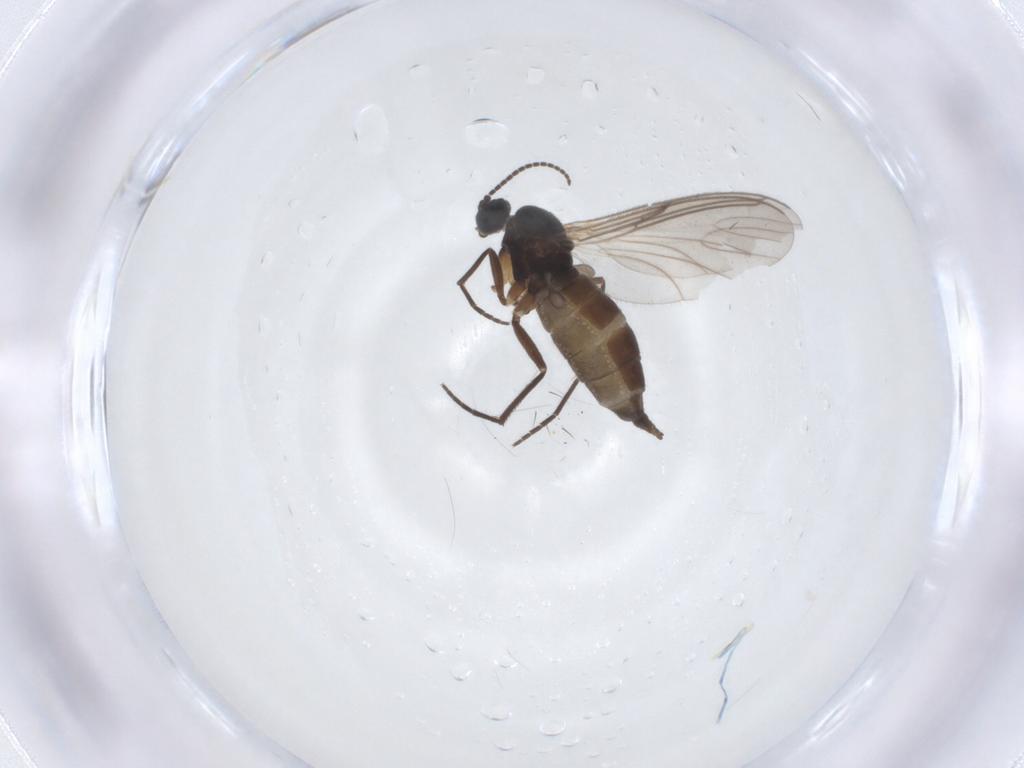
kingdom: Animalia
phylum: Arthropoda
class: Insecta
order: Diptera
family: Sciaridae
